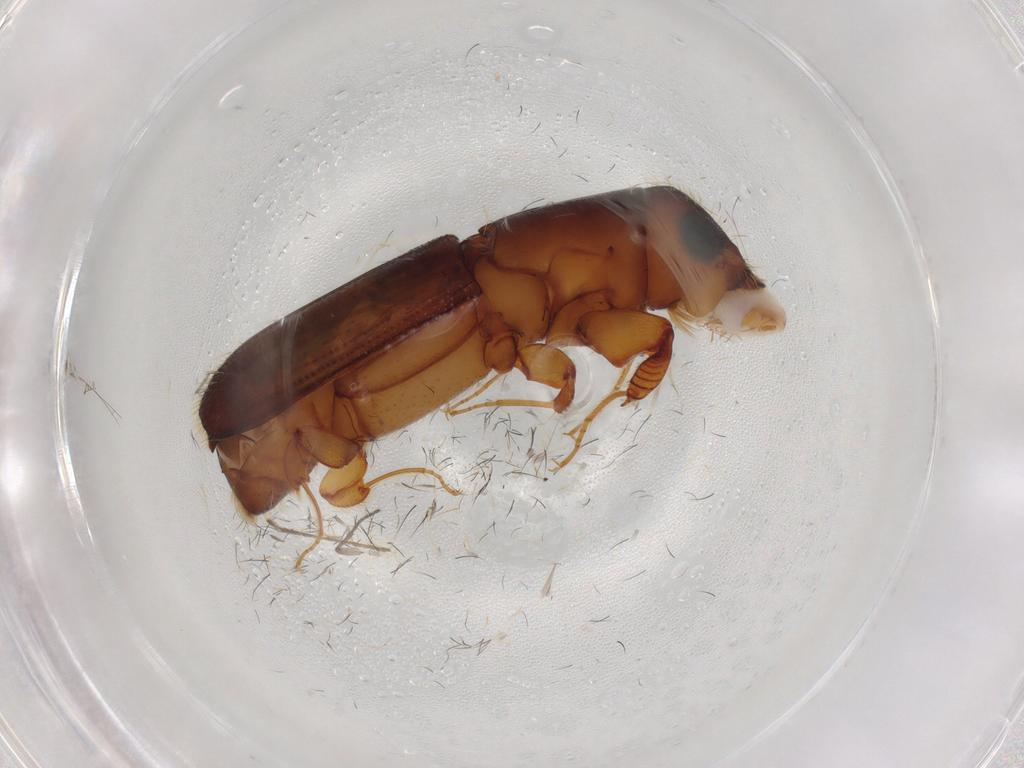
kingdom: Animalia
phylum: Arthropoda
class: Insecta
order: Coleoptera
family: Curculionidae
